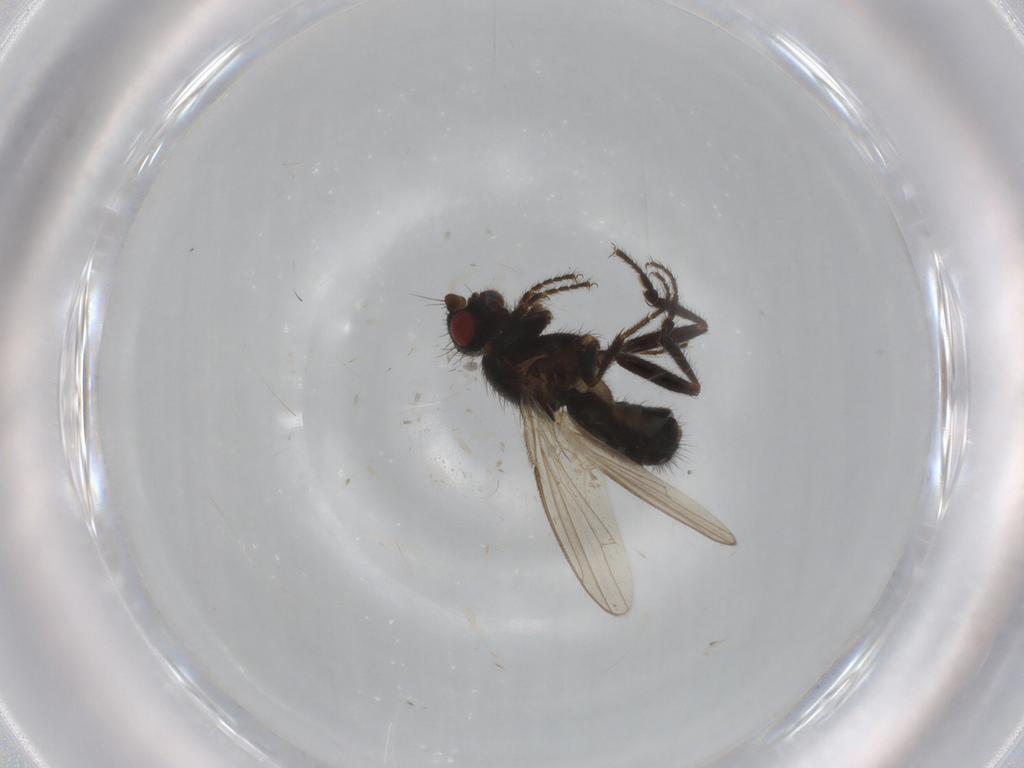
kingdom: Animalia
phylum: Arthropoda
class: Insecta
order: Diptera
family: Sphaeroceridae
